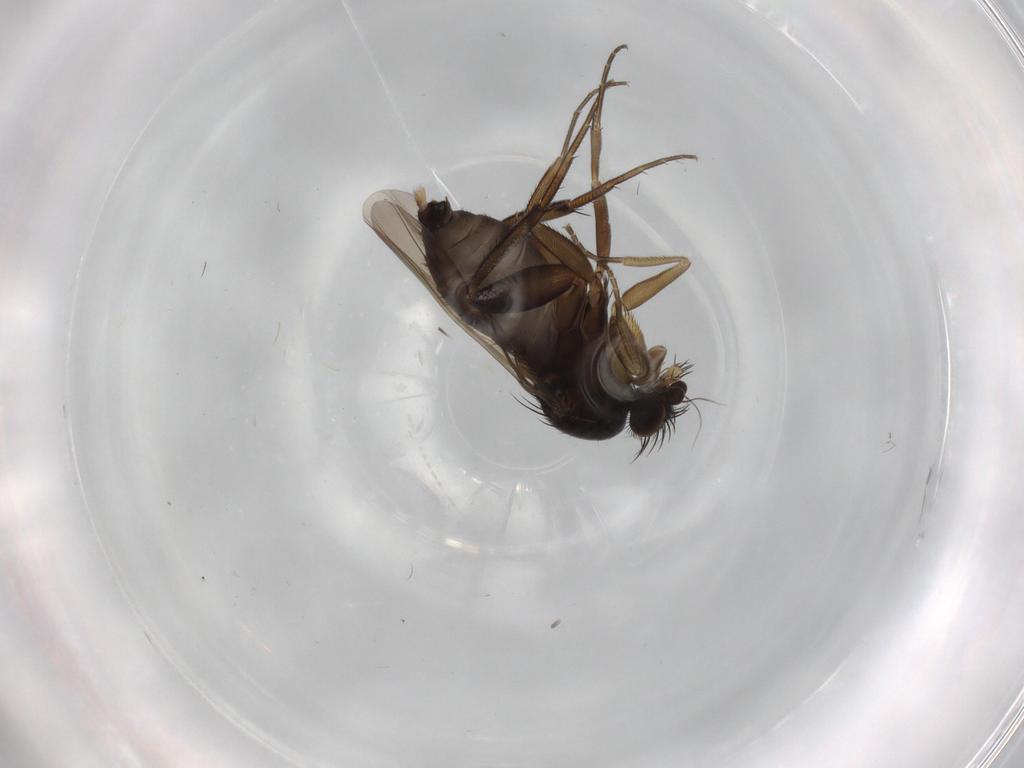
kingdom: Animalia
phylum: Arthropoda
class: Insecta
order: Diptera
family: Phoridae
